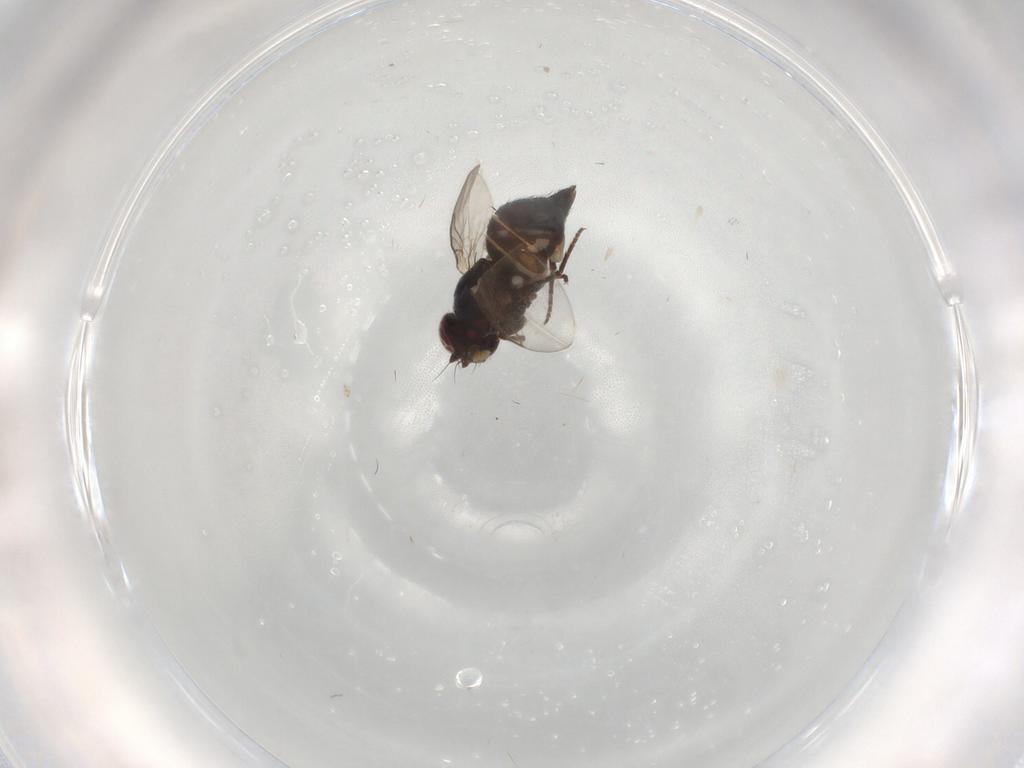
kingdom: Animalia
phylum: Arthropoda
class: Insecta
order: Diptera
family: Dolichopodidae
